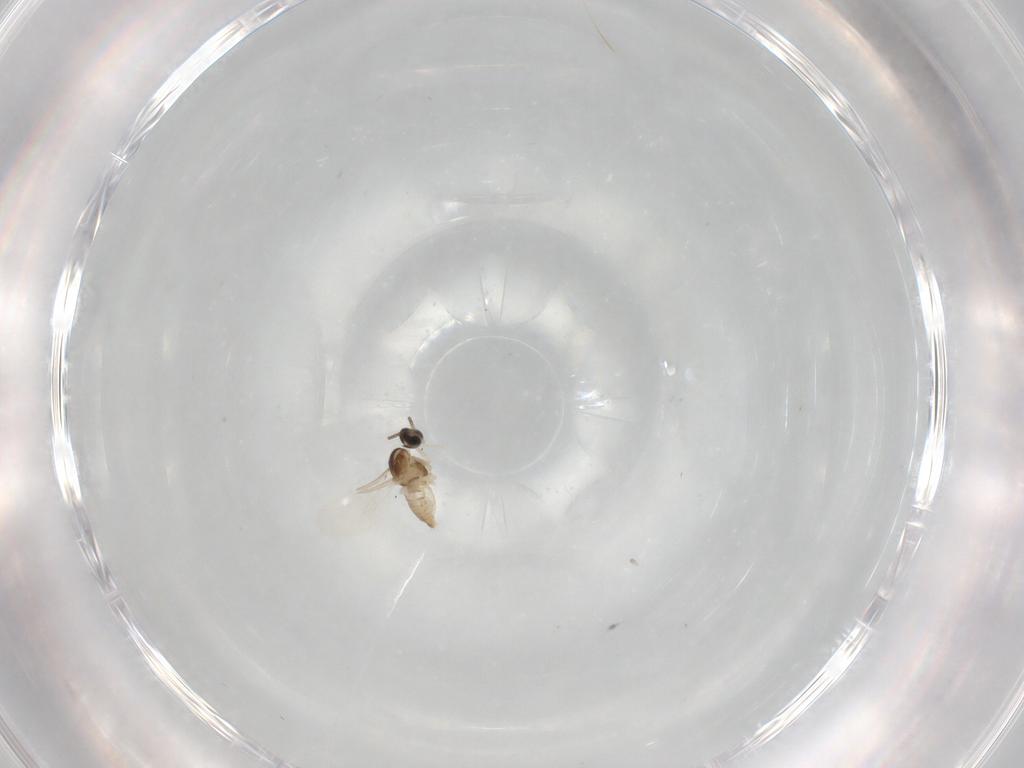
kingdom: Animalia
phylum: Arthropoda
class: Insecta
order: Diptera
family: Cecidomyiidae
